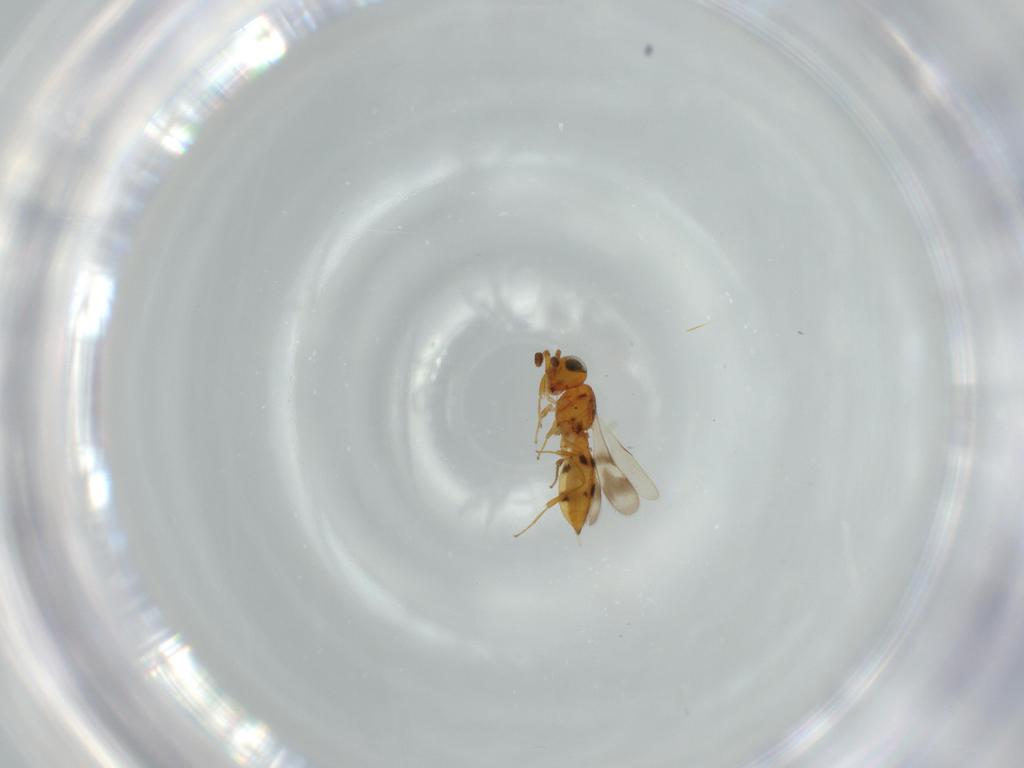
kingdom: Animalia
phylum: Arthropoda
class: Insecta
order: Hymenoptera
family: Scelionidae
